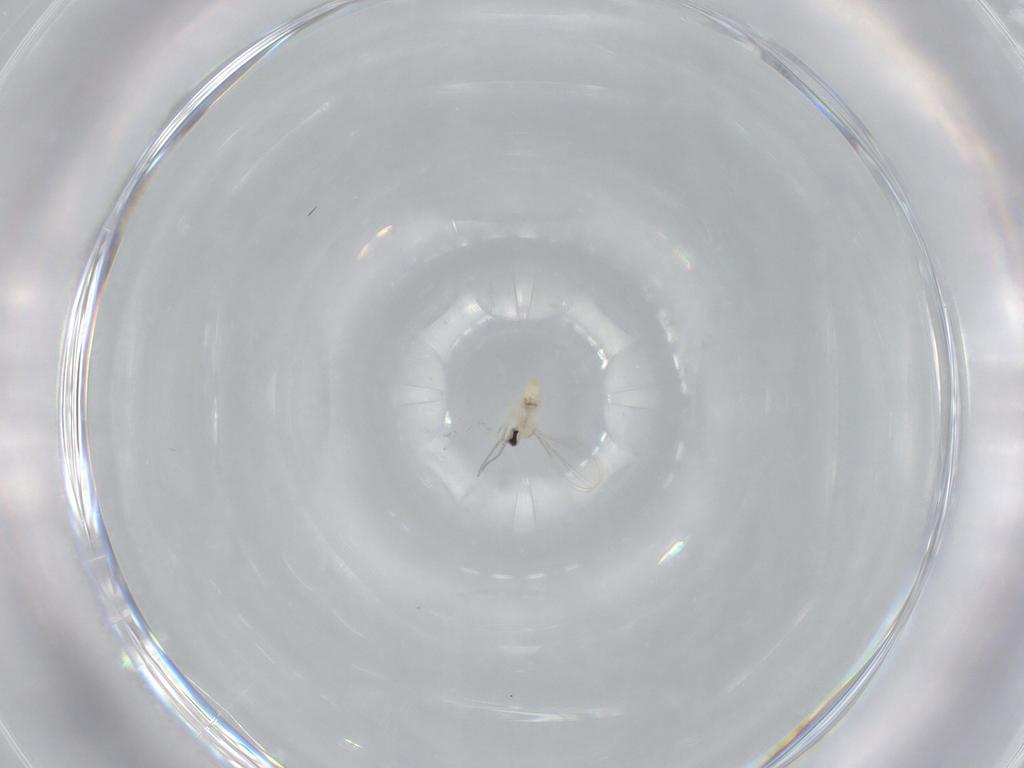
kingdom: Animalia
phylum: Arthropoda
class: Insecta
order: Diptera
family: Cecidomyiidae
